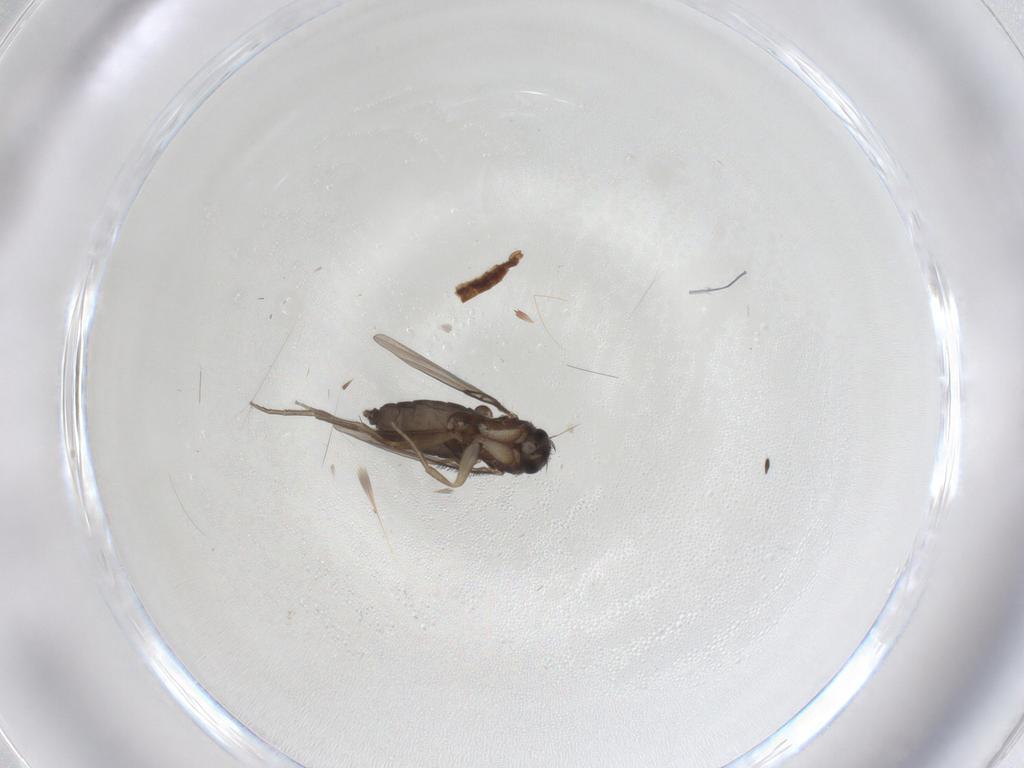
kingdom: Animalia
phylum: Arthropoda
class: Insecta
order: Diptera
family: Phoridae
